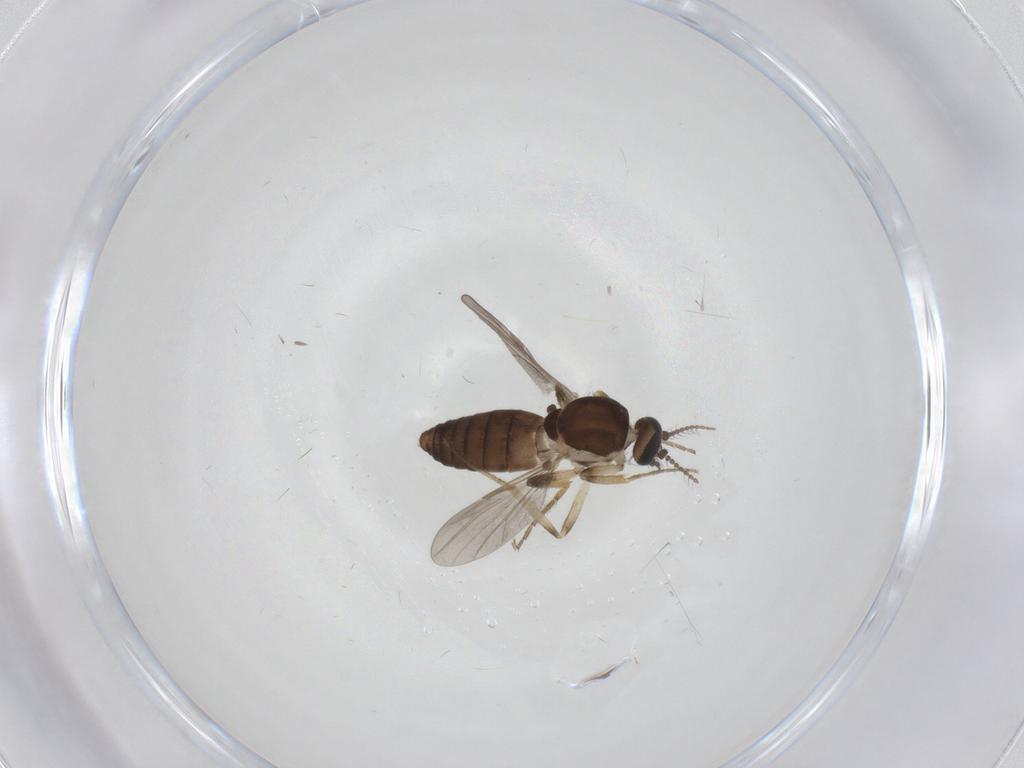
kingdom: Animalia
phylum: Arthropoda
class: Insecta
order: Diptera
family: Ceratopogonidae
